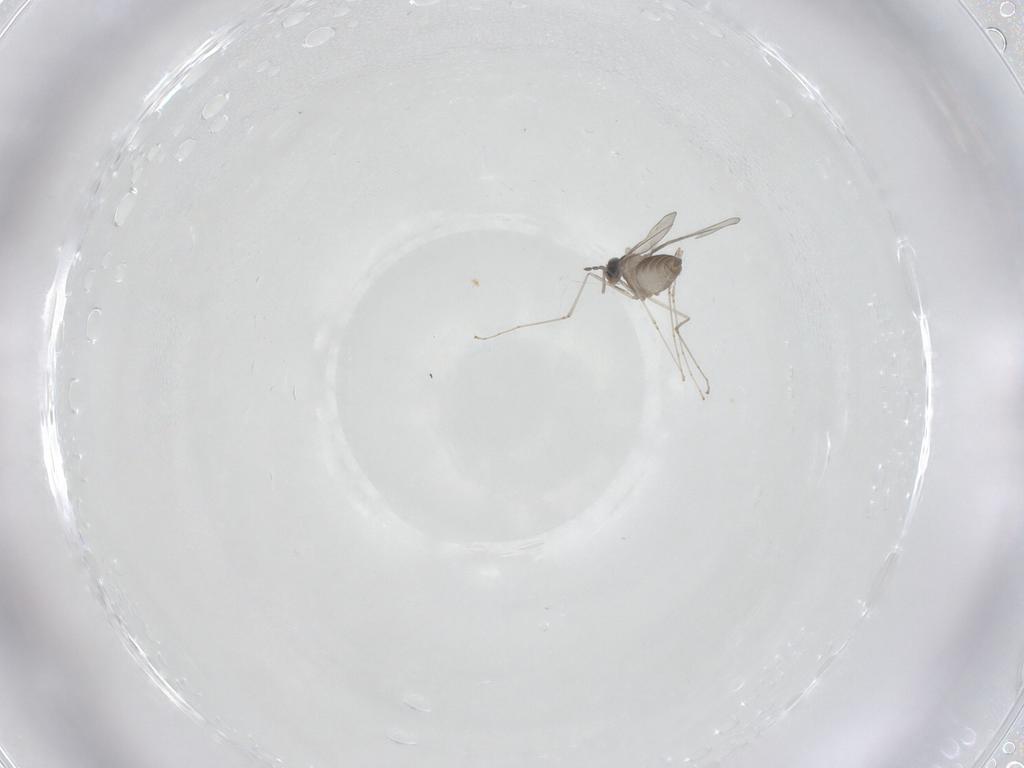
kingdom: Animalia
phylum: Arthropoda
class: Insecta
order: Diptera
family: Cecidomyiidae
